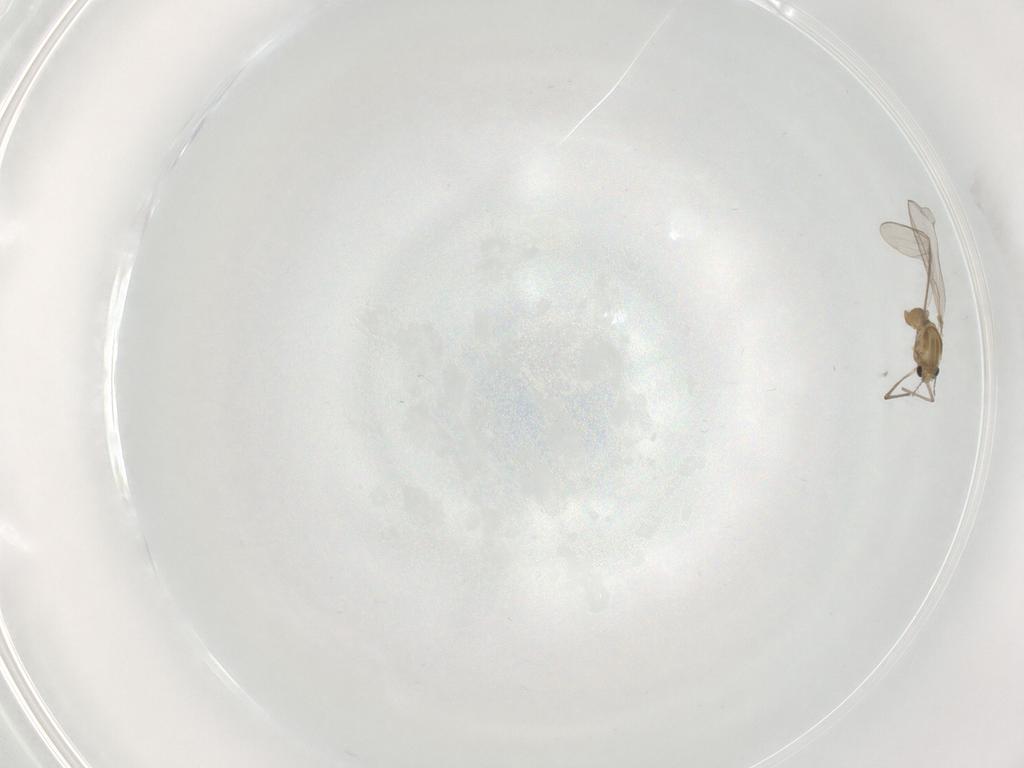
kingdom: Animalia
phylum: Arthropoda
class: Insecta
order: Diptera
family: Chironomidae
